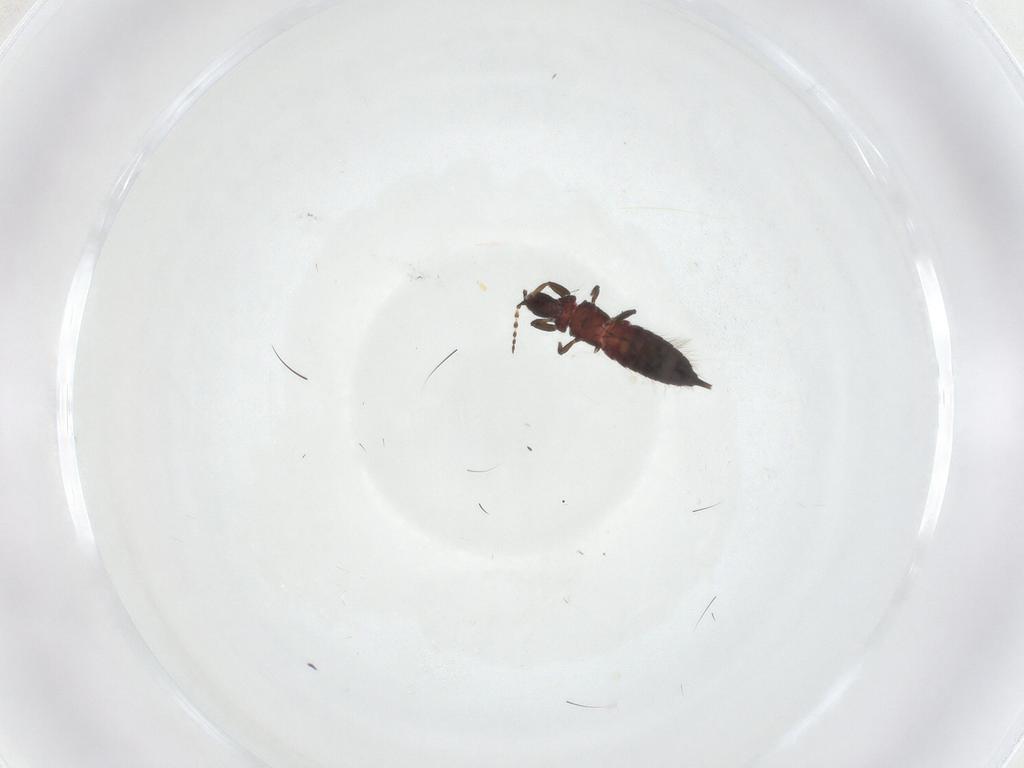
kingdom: Animalia
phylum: Arthropoda
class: Insecta
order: Thysanoptera
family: Phlaeothripidae
